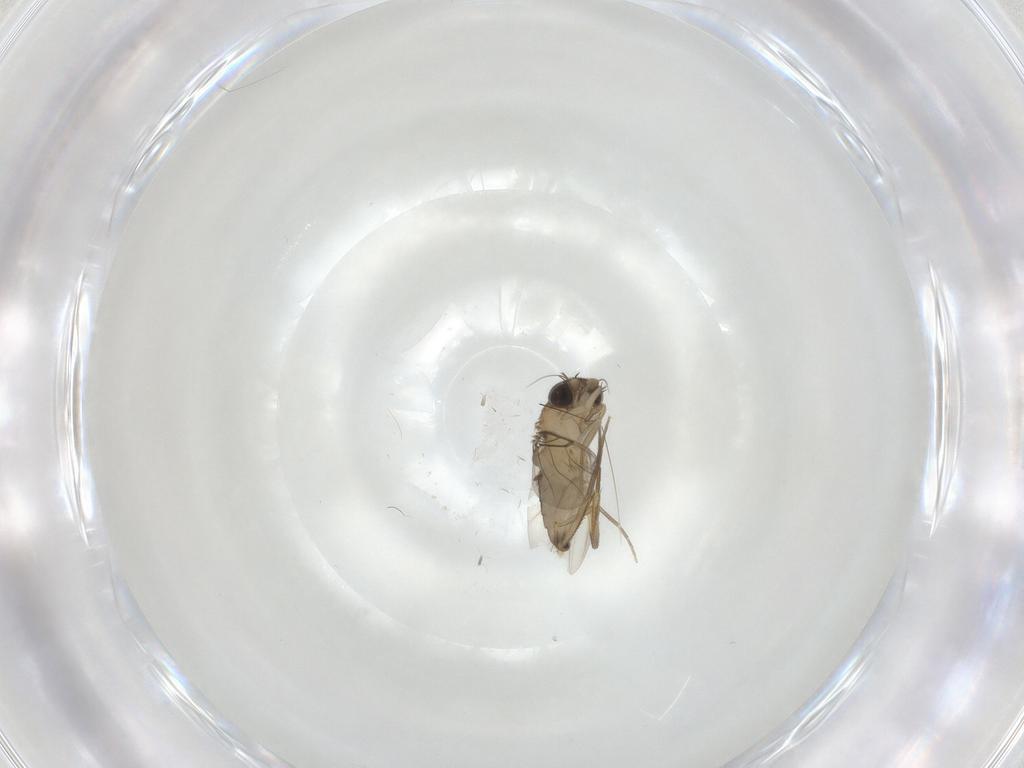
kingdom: Animalia
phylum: Arthropoda
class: Insecta
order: Diptera
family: Phoridae
